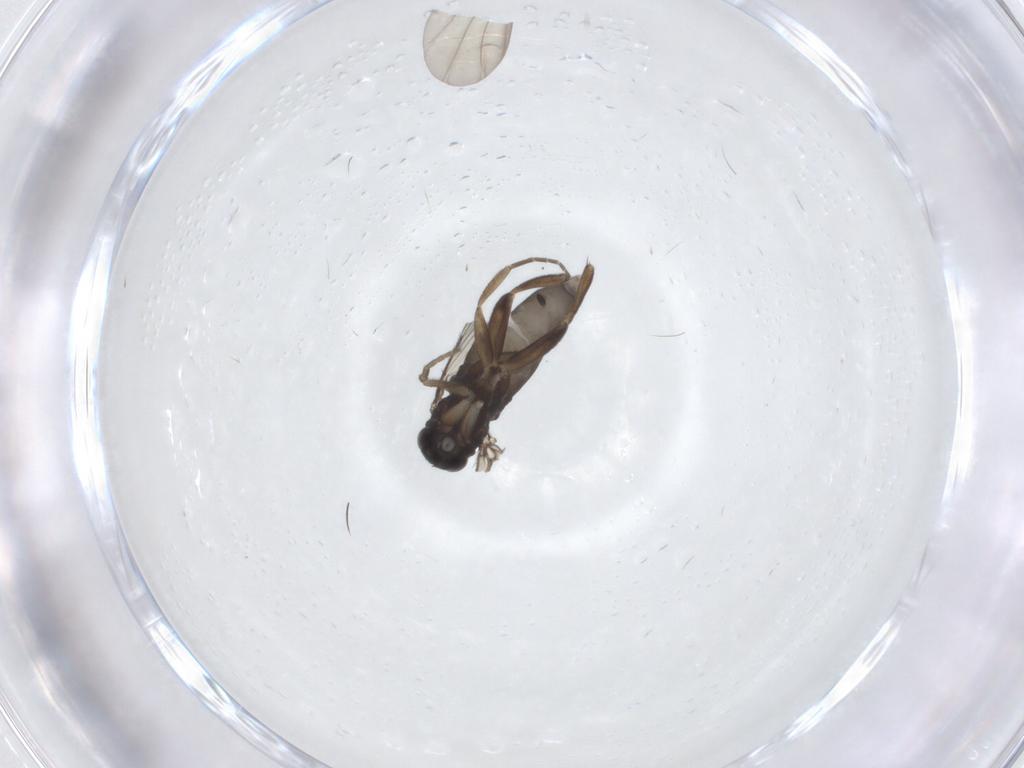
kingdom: Animalia
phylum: Arthropoda
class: Insecta
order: Diptera
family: Phoridae
